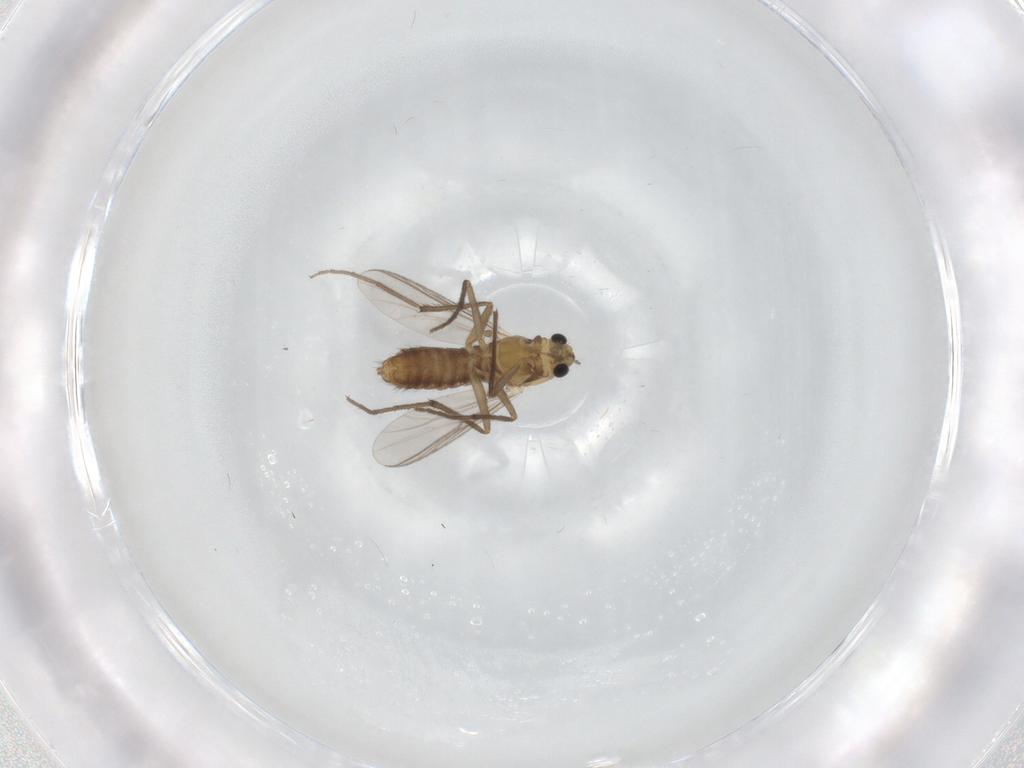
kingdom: Animalia
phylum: Arthropoda
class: Insecta
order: Diptera
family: Chironomidae
